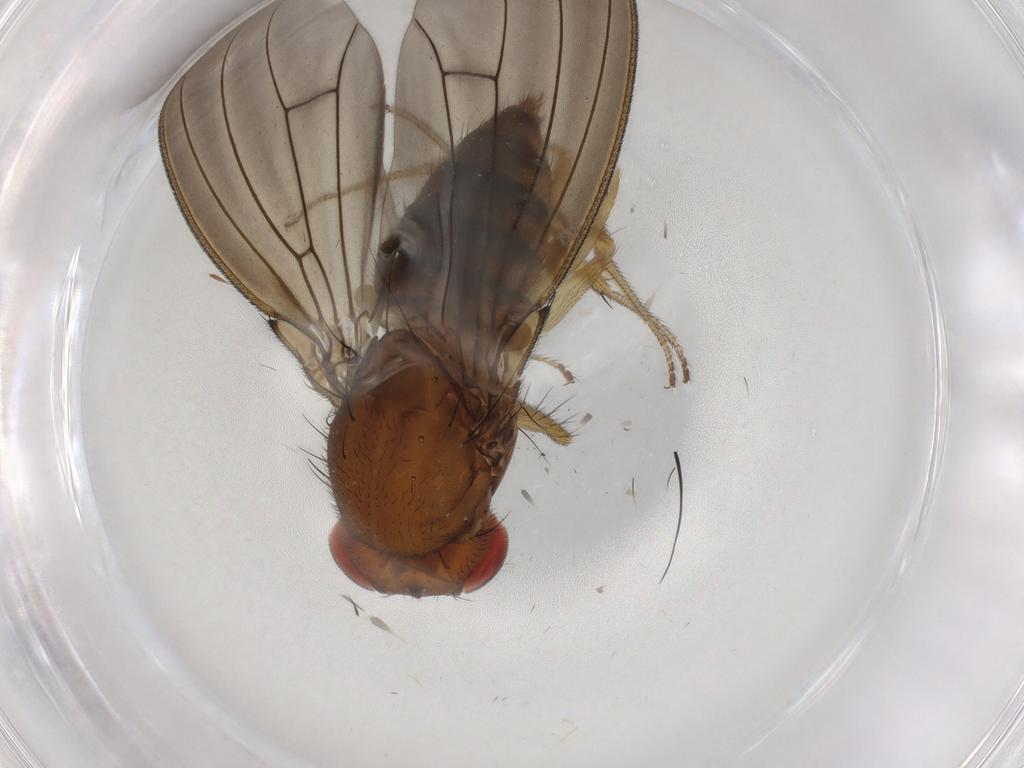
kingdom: Animalia
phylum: Arthropoda
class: Insecta
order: Diptera
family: Drosophilidae
